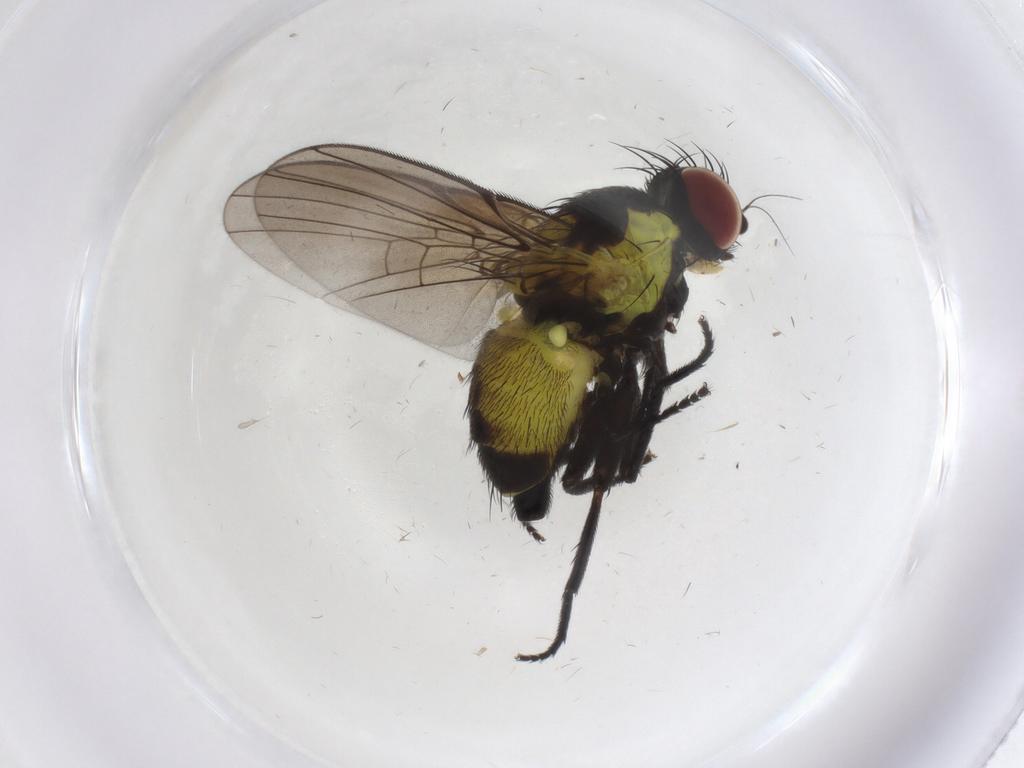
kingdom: Animalia
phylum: Arthropoda
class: Insecta
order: Diptera
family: Agromyzidae
